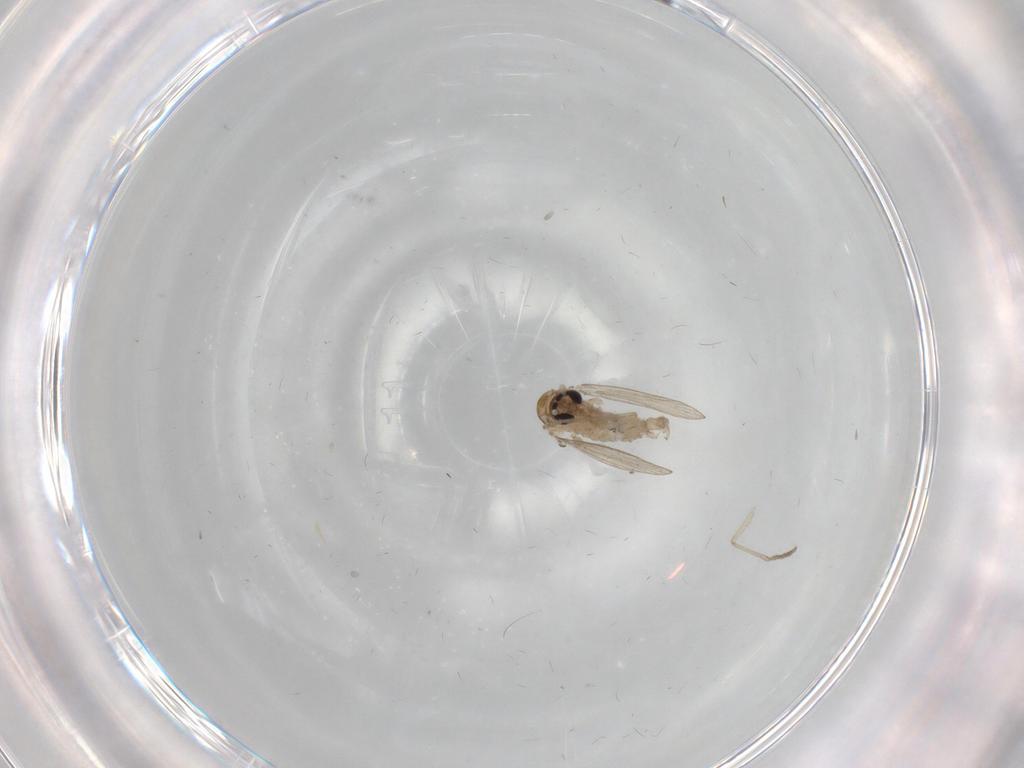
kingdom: Animalia
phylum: Arthropoda
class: Insecta
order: Diptera
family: Psychodidae
